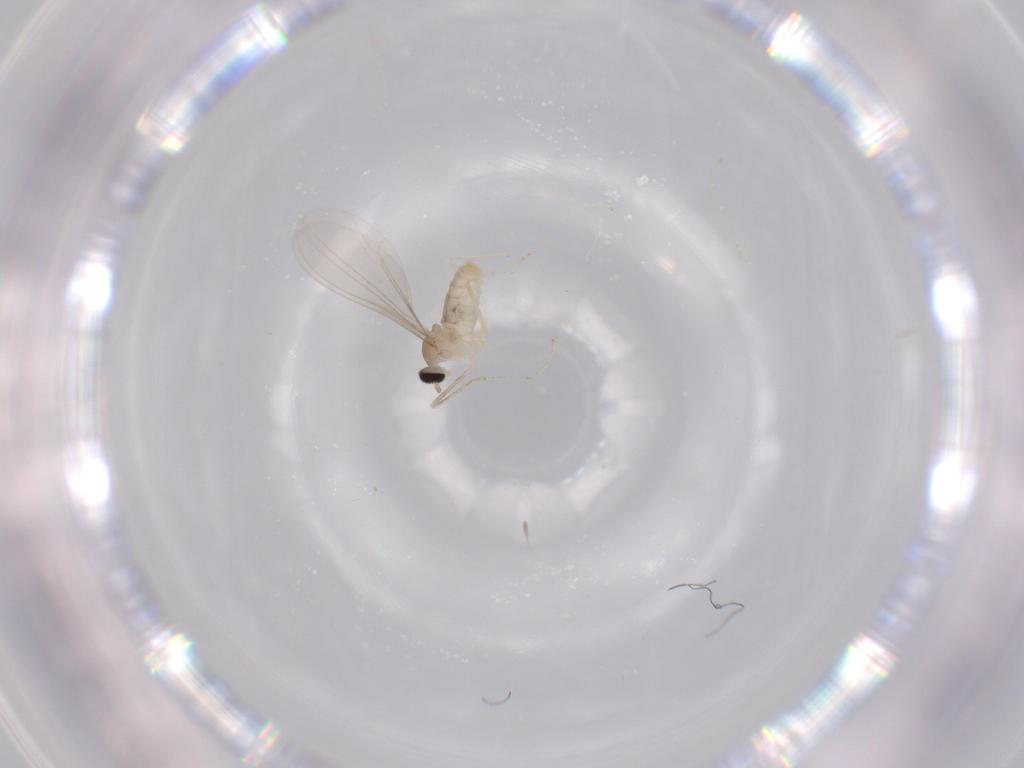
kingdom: Animalia
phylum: Arthropoda
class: Insecta
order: Diptera
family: Cecidomyiidae
